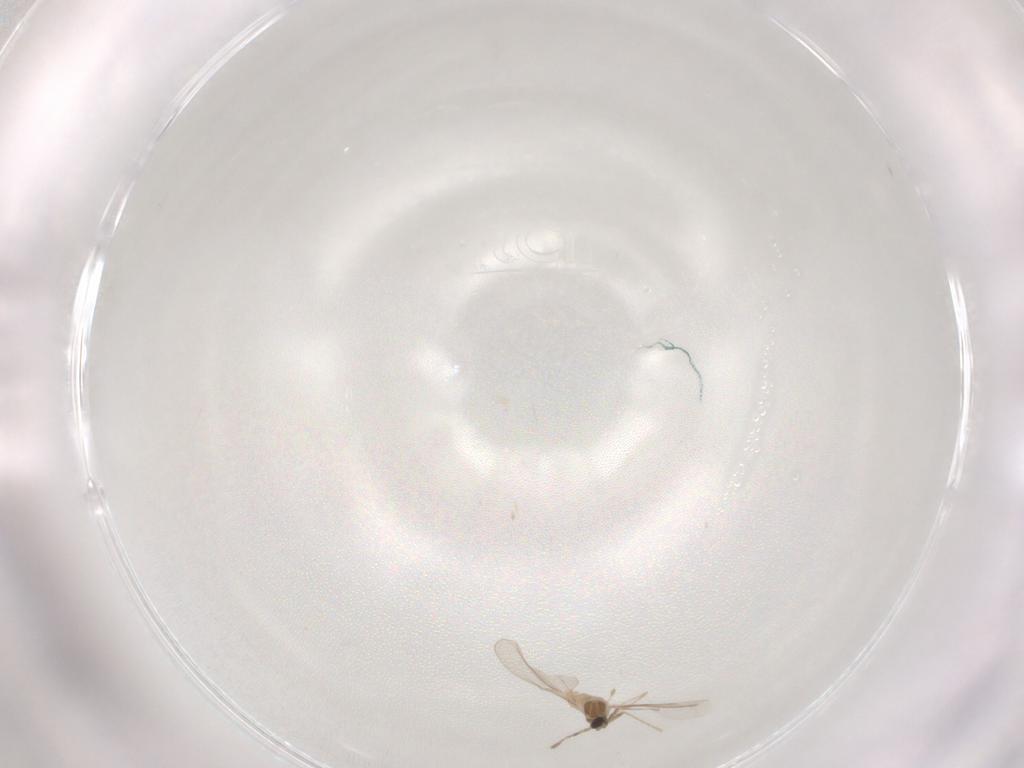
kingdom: Animalia
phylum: Arthropoda
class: Insecta
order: Diptera
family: Cecidomyiidae
